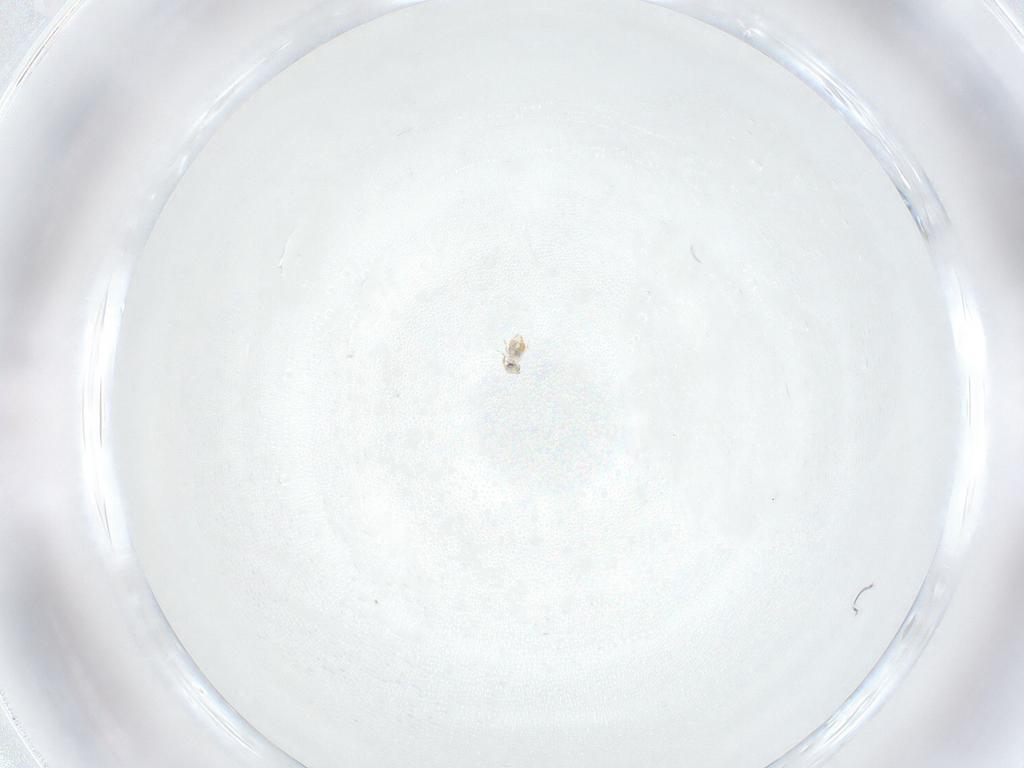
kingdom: Animalia
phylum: Arthropoda
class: Collembola
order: Symphypleona
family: Katiannidae
